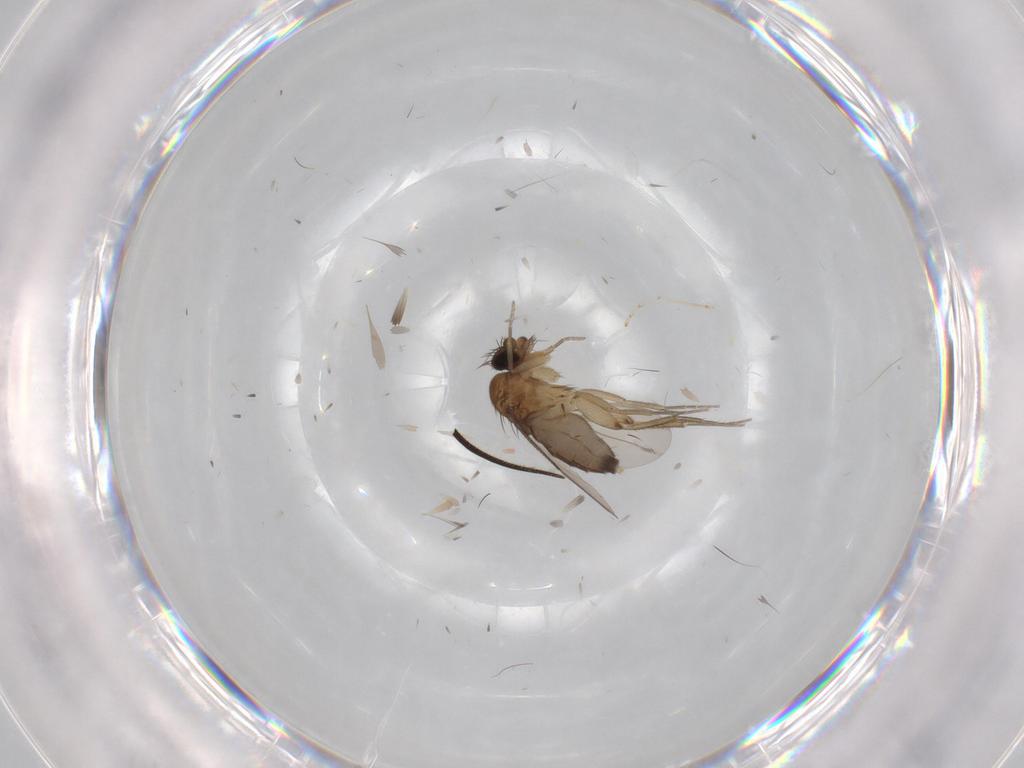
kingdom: Animalia
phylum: Arthropoda
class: Insecta
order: Diptera
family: Phoridae
